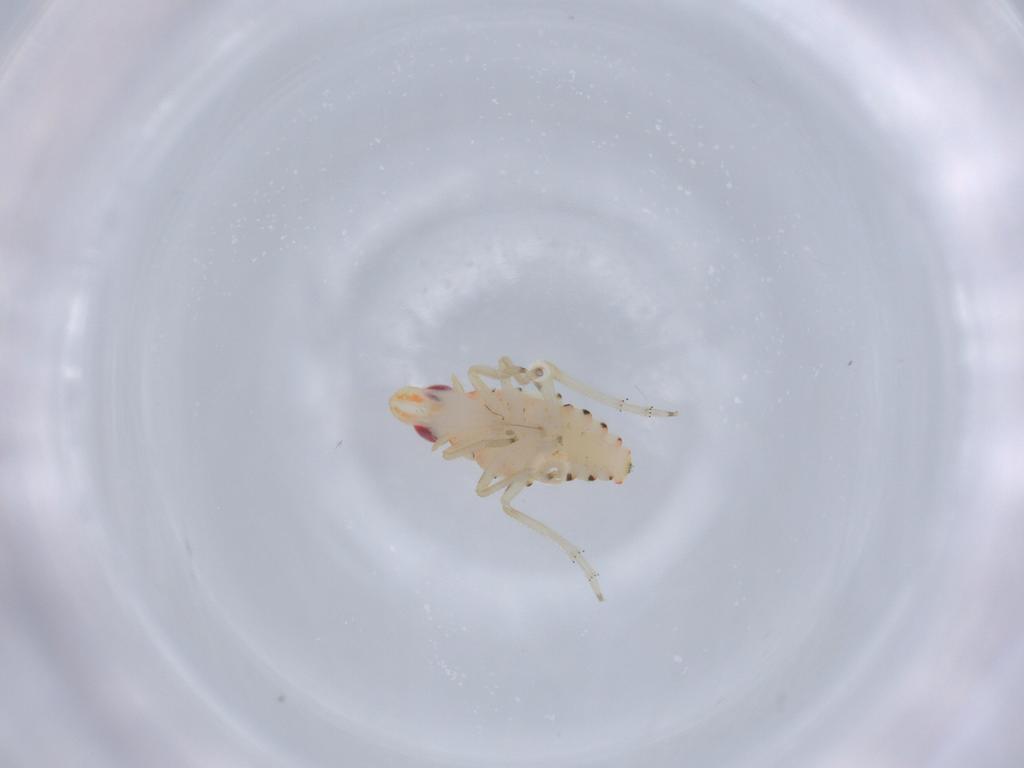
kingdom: Animalia
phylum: Arthropoda
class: Insecta
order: Hemiptera
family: Tropiduchidae
